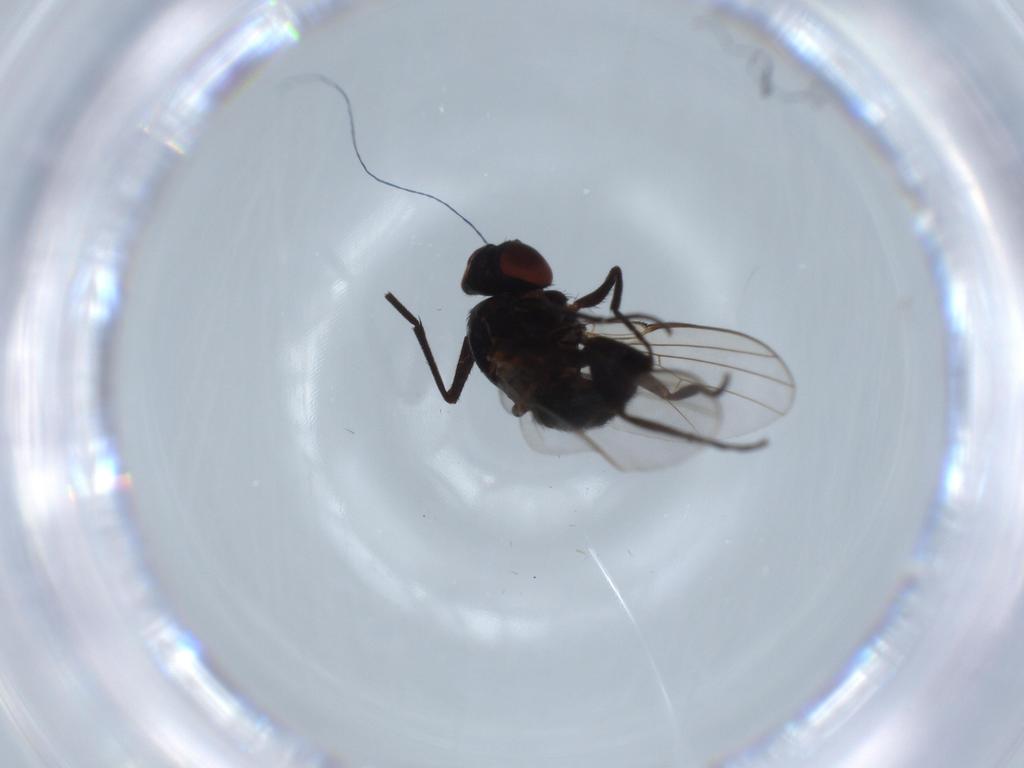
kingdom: Animalia
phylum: Arthropoda
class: Insecta
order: Diptera
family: Agromyzidae
